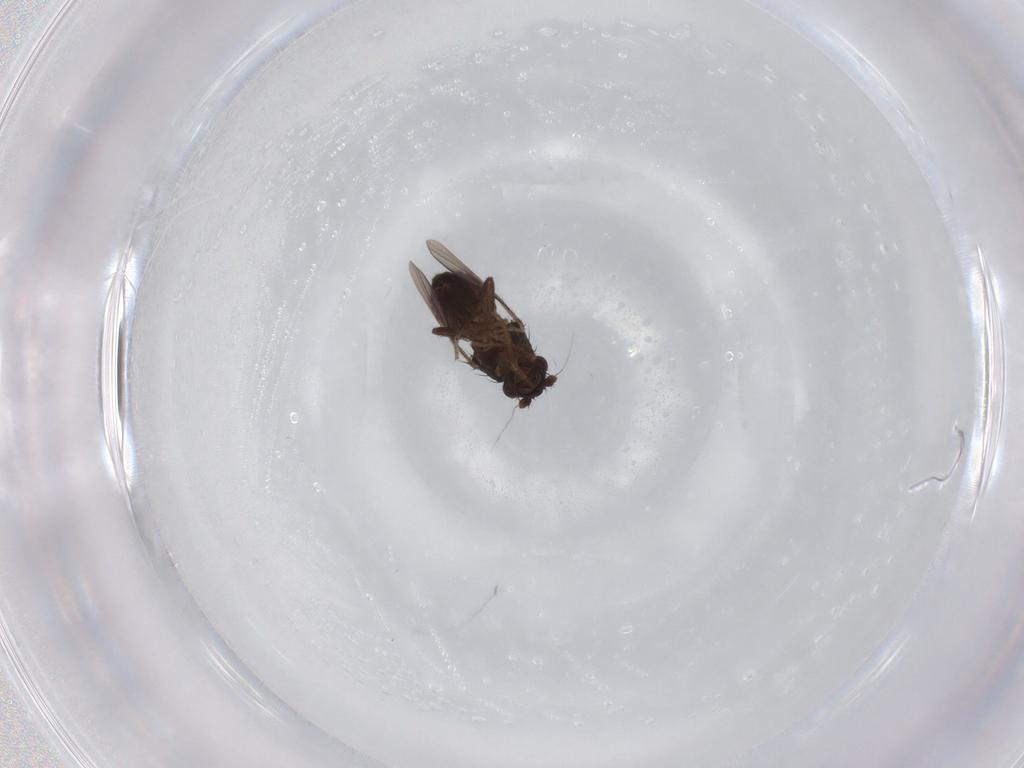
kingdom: Animalia
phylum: Arthropoda
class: Insecta
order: Diptera
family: Sphaeroceridae
